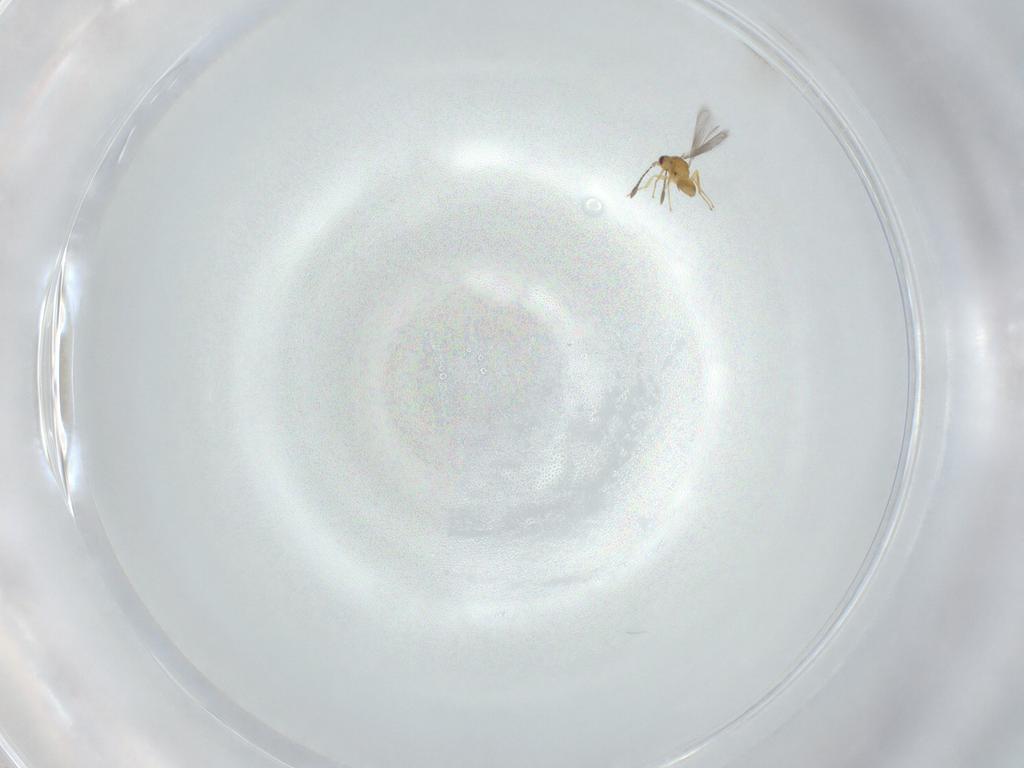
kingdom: Animalia
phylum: Arthropoda
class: Insecta
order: Hymenoptera
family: Mymaridae
